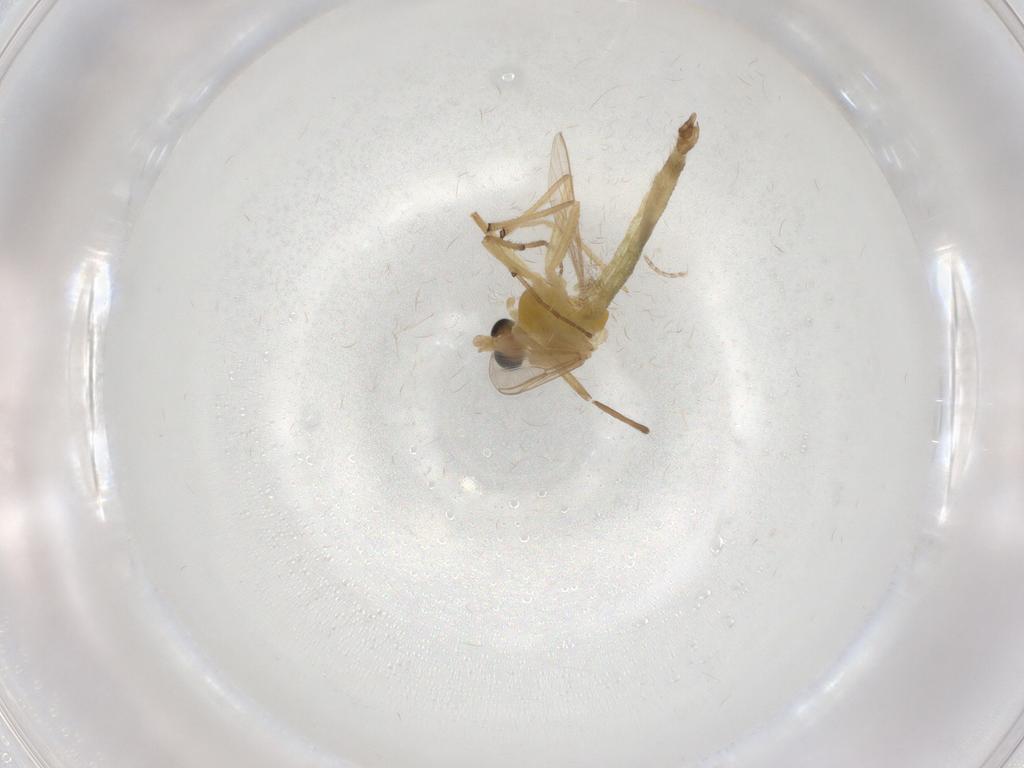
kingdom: Animalia
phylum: Arthropoda
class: Insecta
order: Diptera
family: Chironomidae
